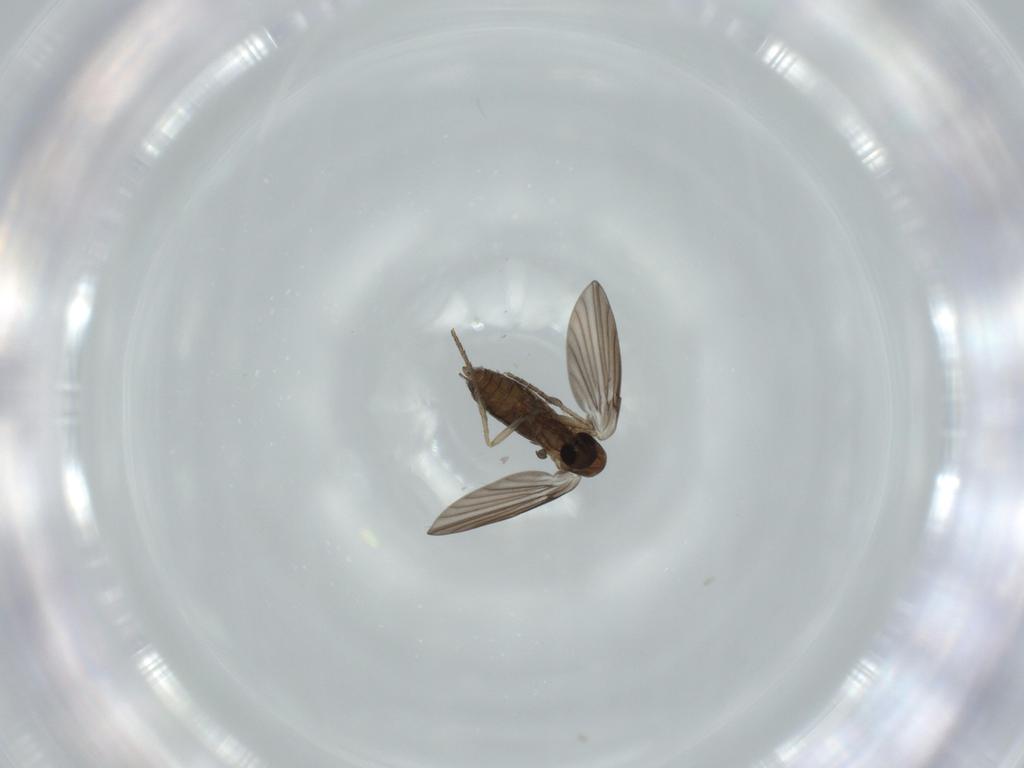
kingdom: Animalia
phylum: Arthropoda
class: Insecta
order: Diptera
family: Psychodidae
